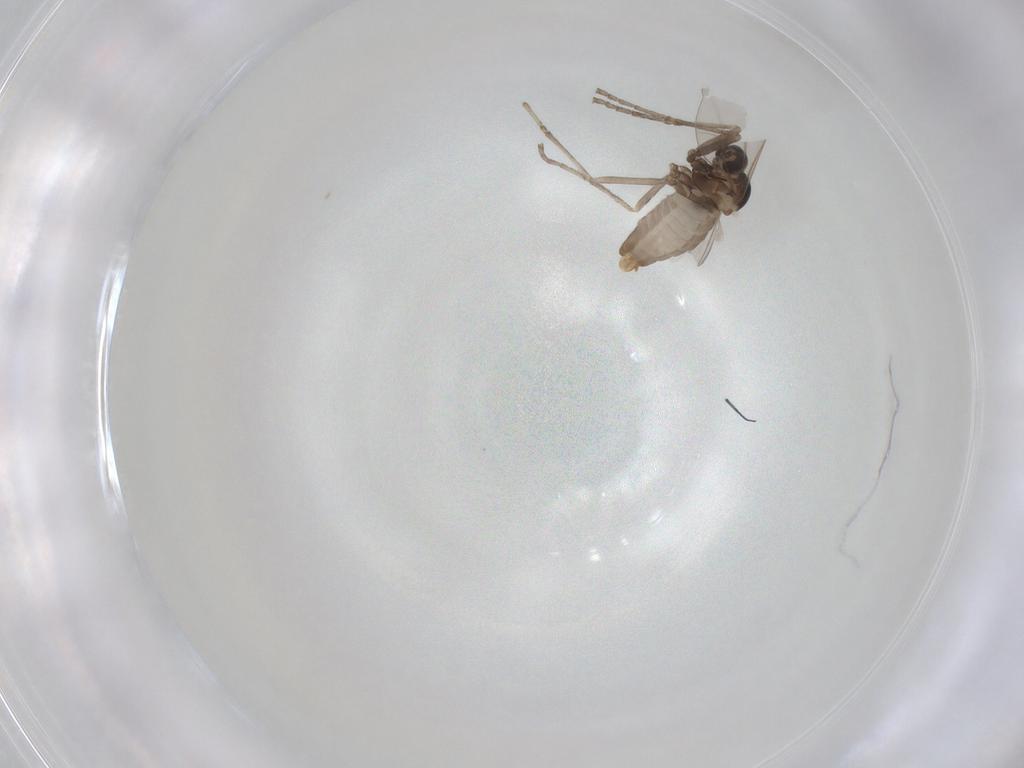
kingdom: Animalia
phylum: Arthropoda
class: Insecta
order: Diptera
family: Cecidomyiidae
